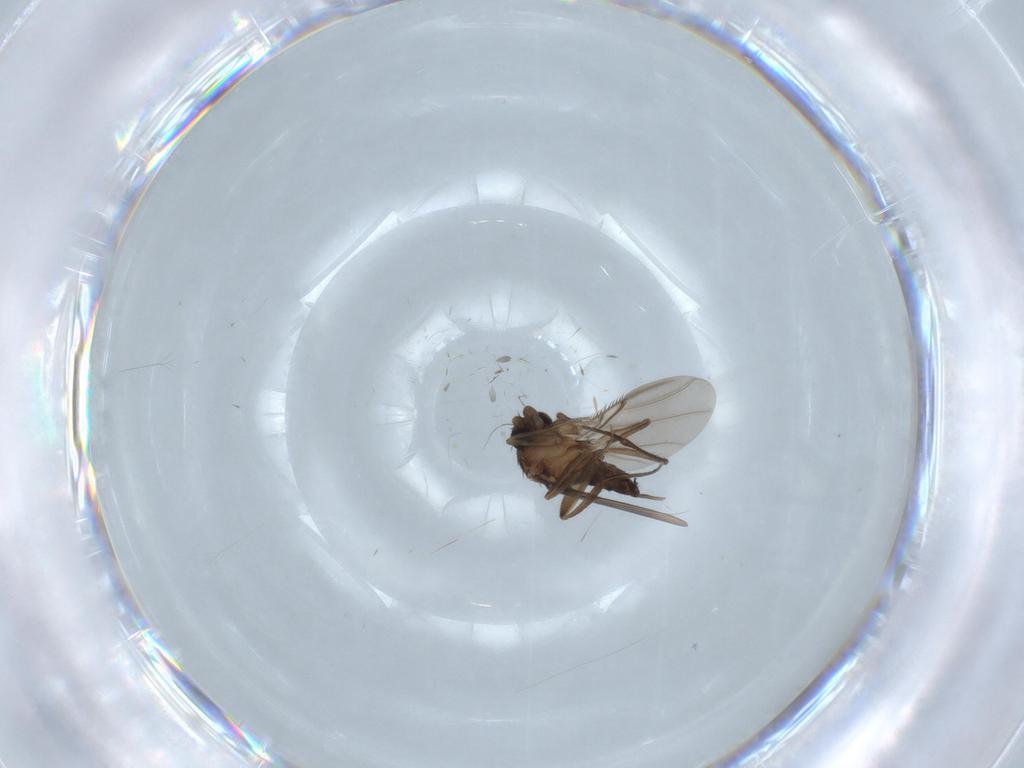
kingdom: Animalia
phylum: Arthropoda
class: Insecta
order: Diptera
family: Phoridae
